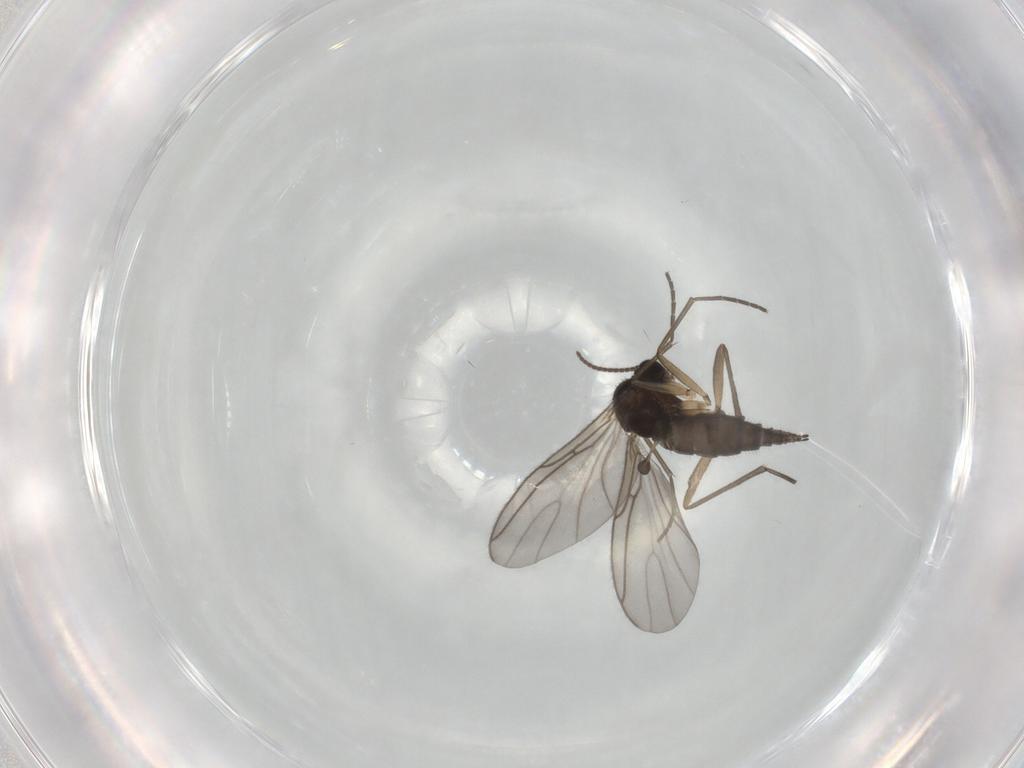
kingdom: Animalia
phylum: Arthropoda
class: Insecta
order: Diptera
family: Sciaridae
